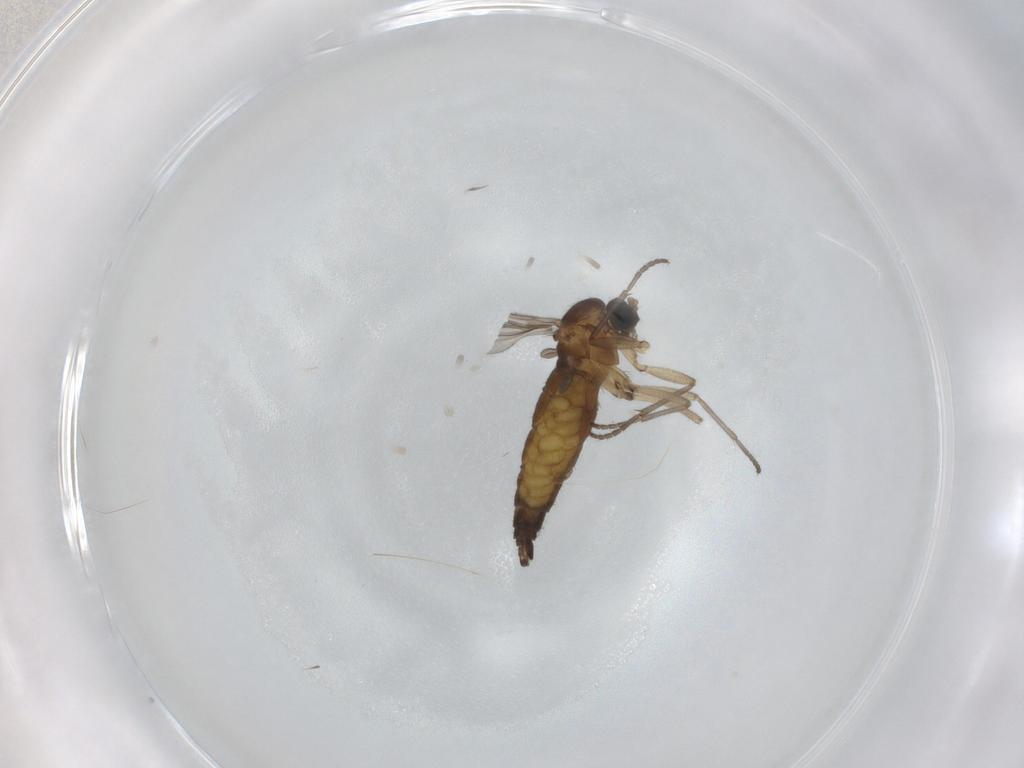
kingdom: Animalia
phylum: Arthropoda
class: Insecta
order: Diptera
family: Sciaridae
